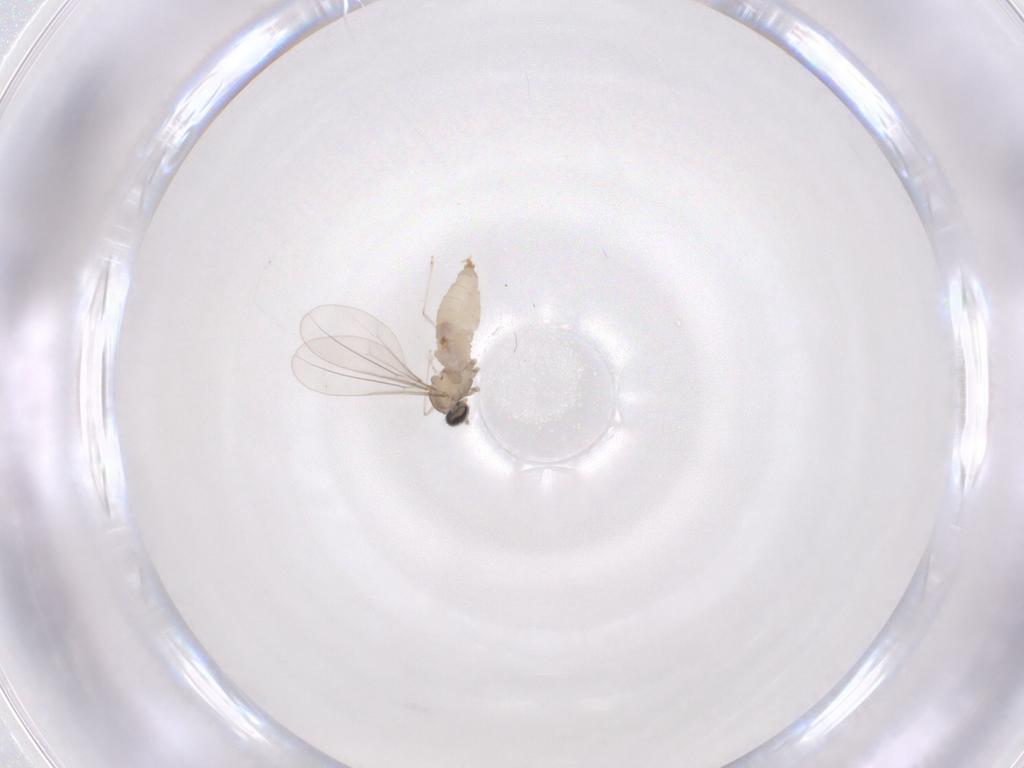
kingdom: Animalia
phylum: Arthropoda
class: Insecta
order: Diptera
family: Cecidomyiidae
